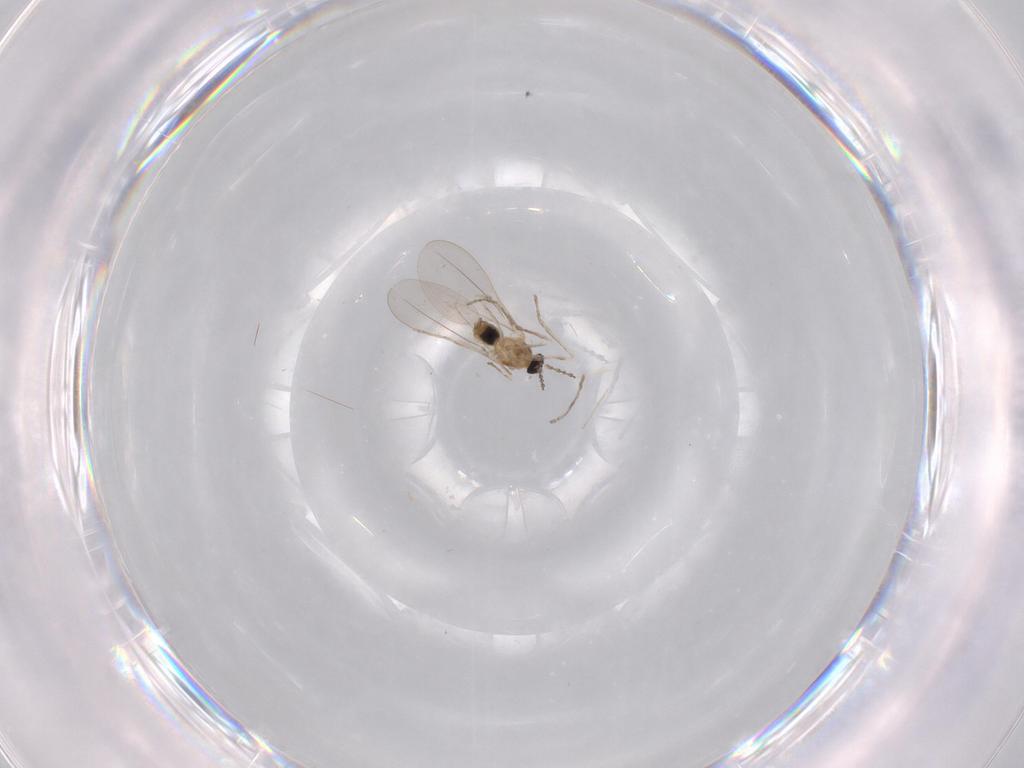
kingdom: Animalia
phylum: Arthropoda
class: Insecta
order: Diptera
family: Cecidomyiidae
